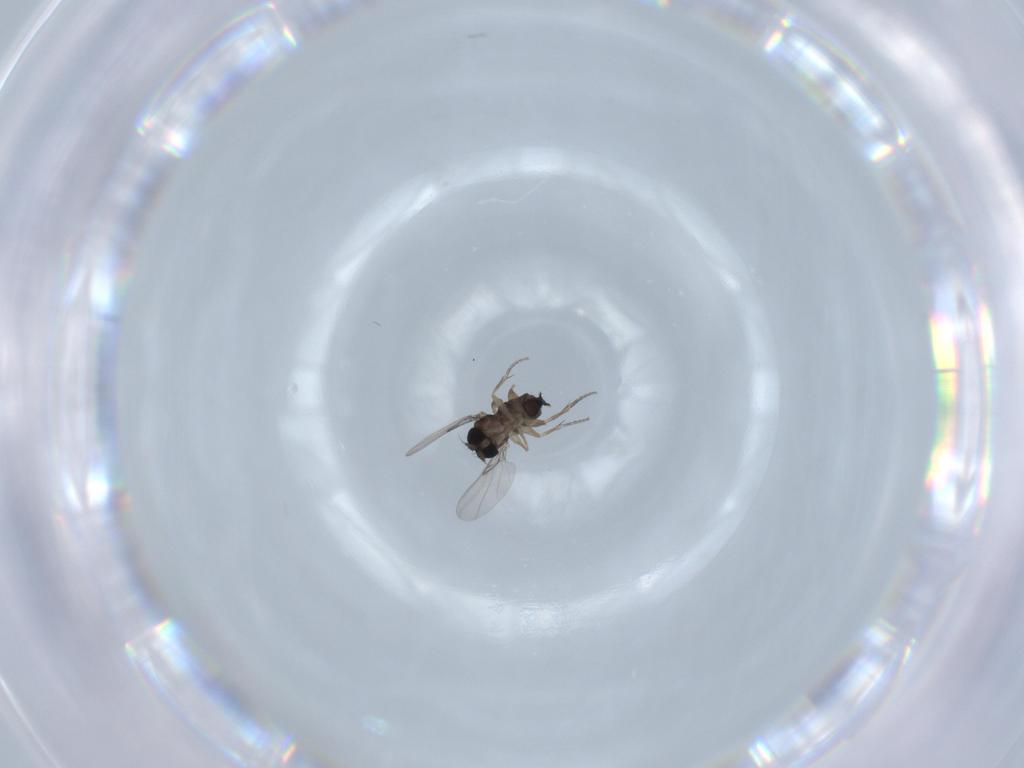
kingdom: Animalia
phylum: Arthropoda
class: Insecta
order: Diptera
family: Phoridae
